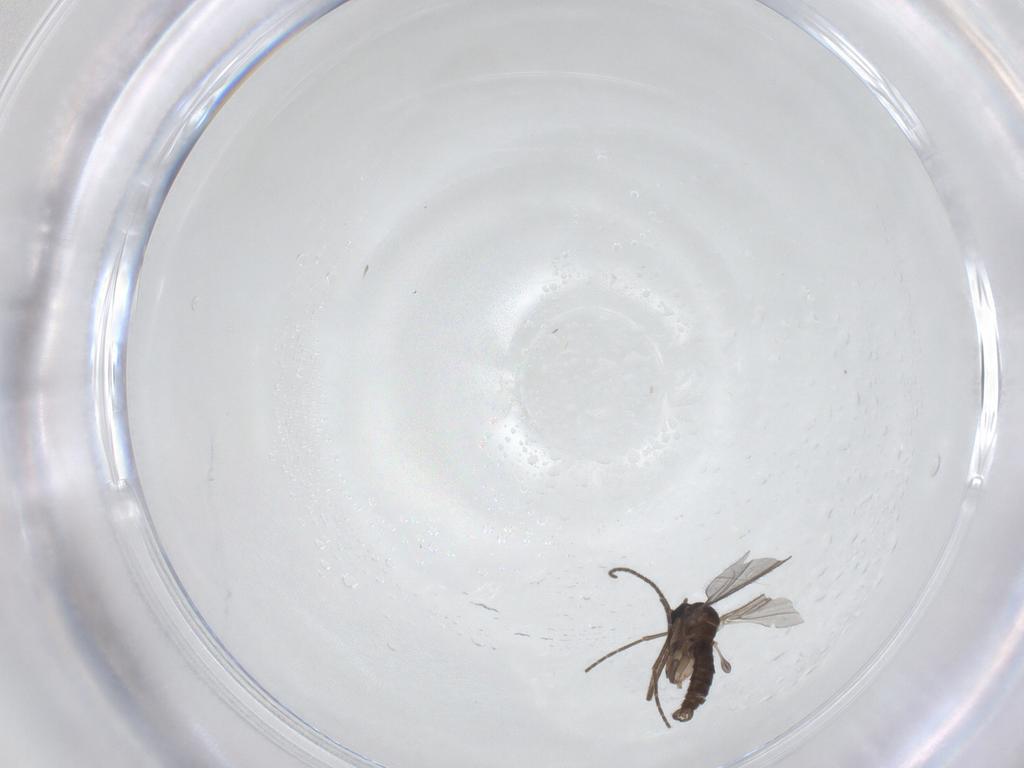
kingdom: Animalia
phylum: Arthropoda
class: Insecta
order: Diptera
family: Sciaridae
